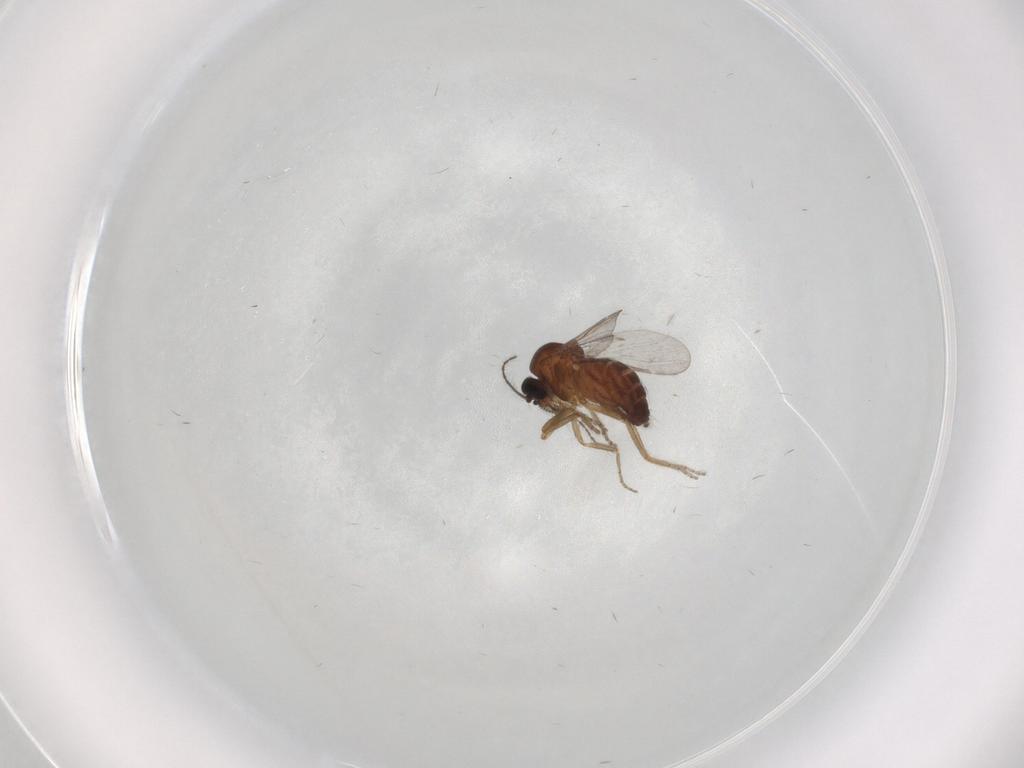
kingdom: Animalia
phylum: Arthropoda
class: Insecta
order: Diptera
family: Ceratopogonidae
